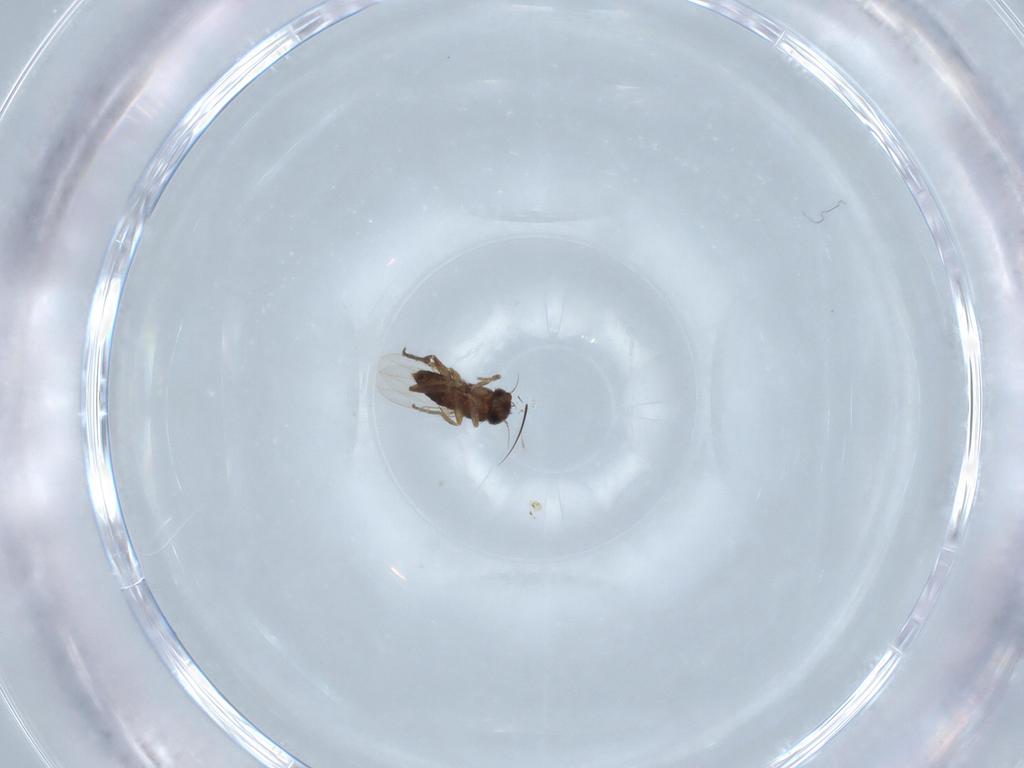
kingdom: Animalia
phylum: Arthropoda
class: Insecta
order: Diptera
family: Phoridae
